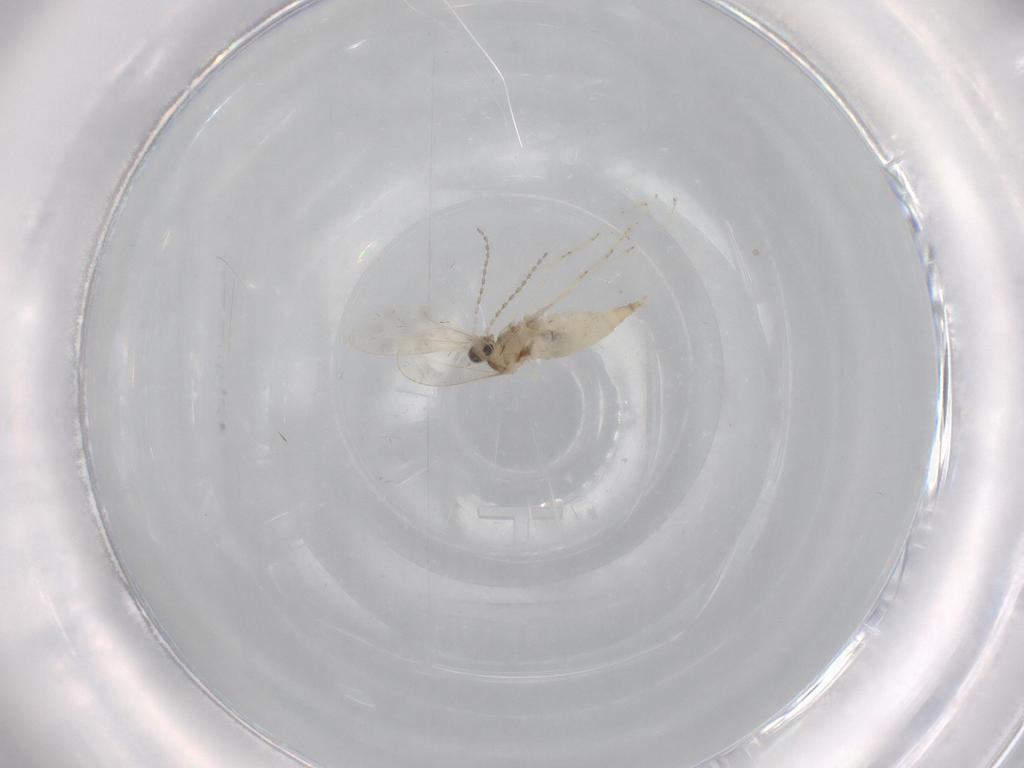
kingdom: Animalia
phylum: Arthropoda
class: Insecta
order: Diptera
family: Cecidomyiidae
